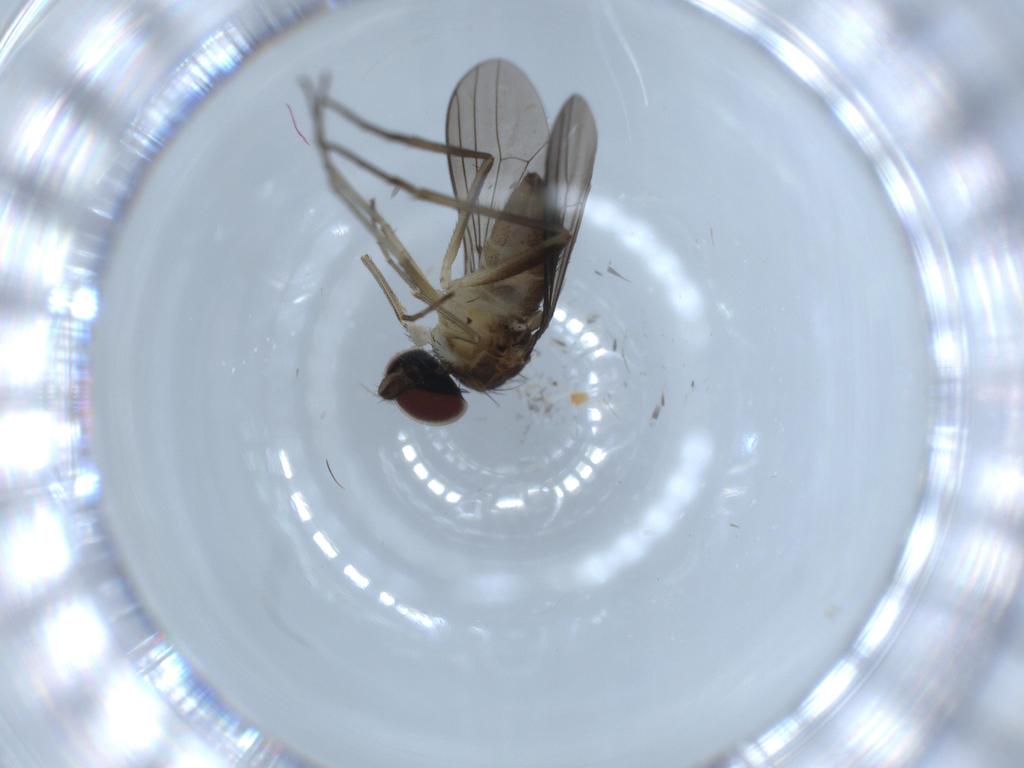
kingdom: Animalia
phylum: Arthropoda
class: Insecta
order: Diptera
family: Dolichopodidae
